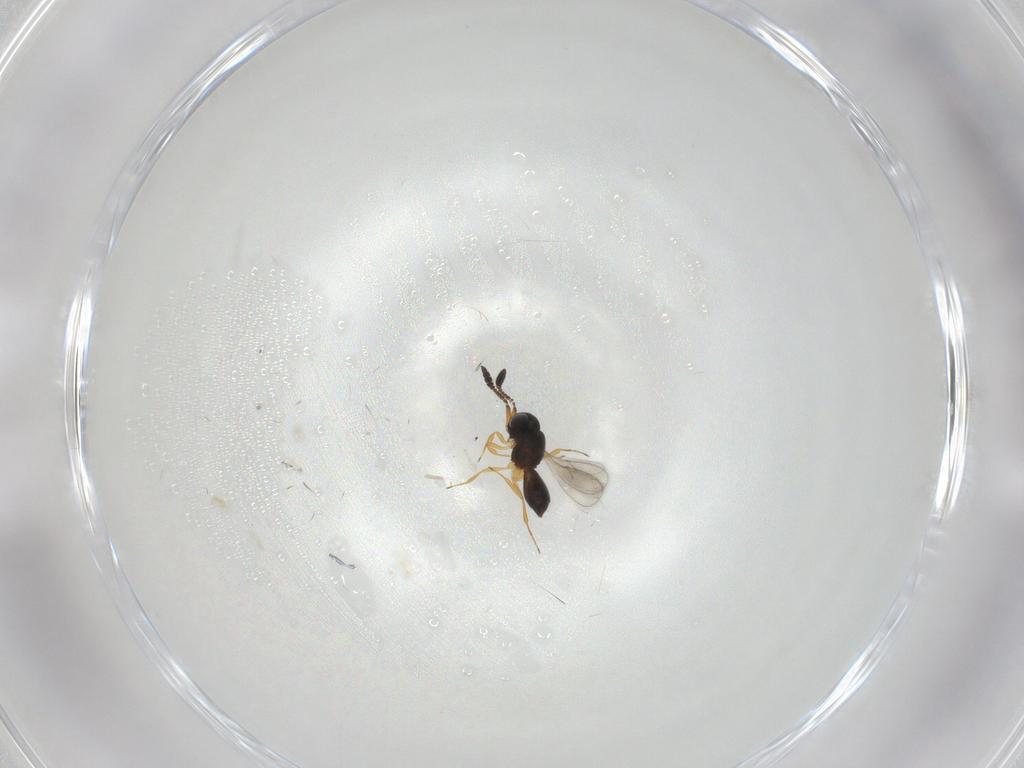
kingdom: Animalia
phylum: Arthropoda
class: Insecta
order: Hymenoptera
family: Scelionidae
